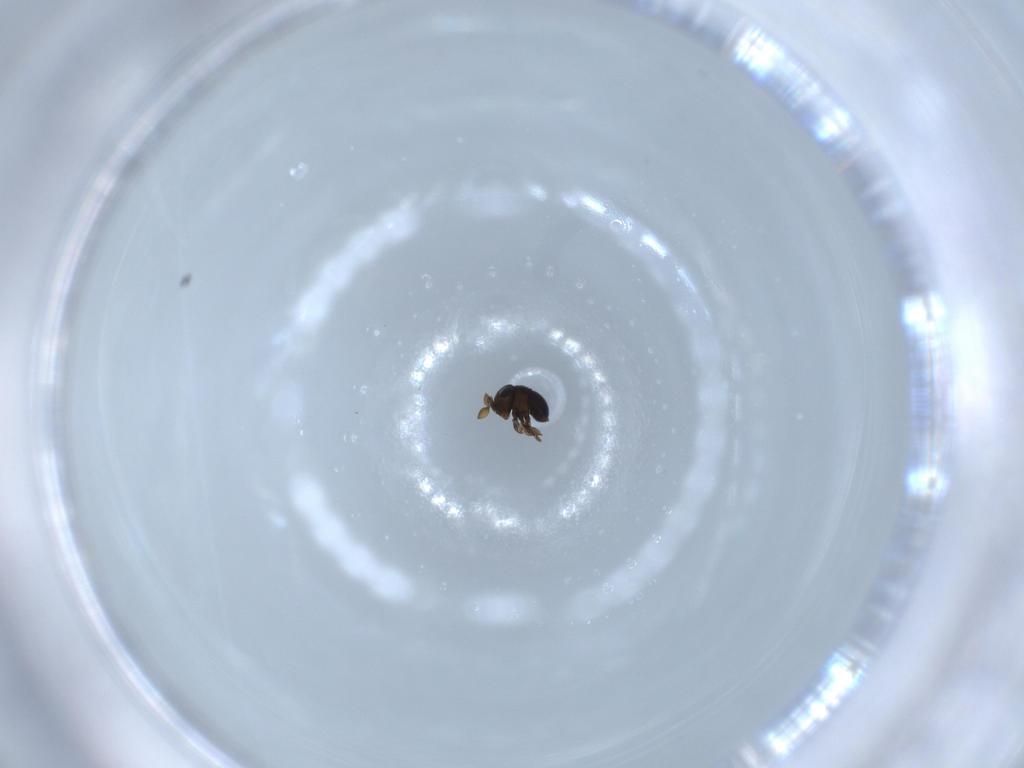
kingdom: Animalia
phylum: Arthropoda
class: Insecta
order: Hymenoptera
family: Scelionidae
